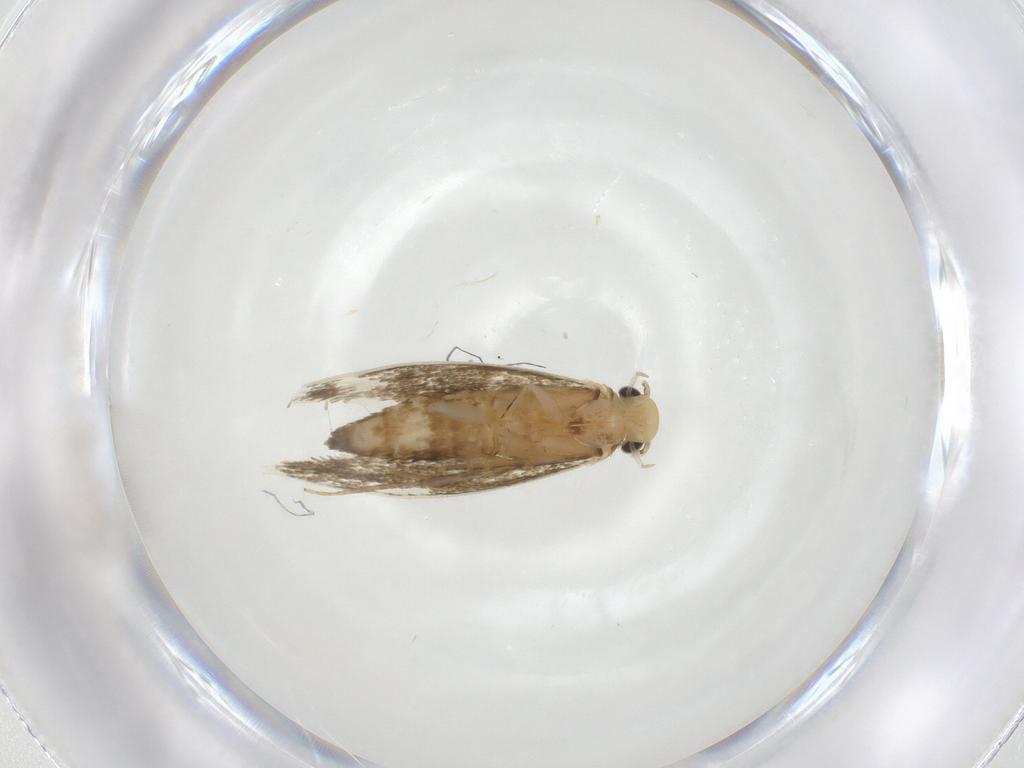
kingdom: Animalia
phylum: Arthropoda
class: Insecta
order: Lepidoptera
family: Tineidae
